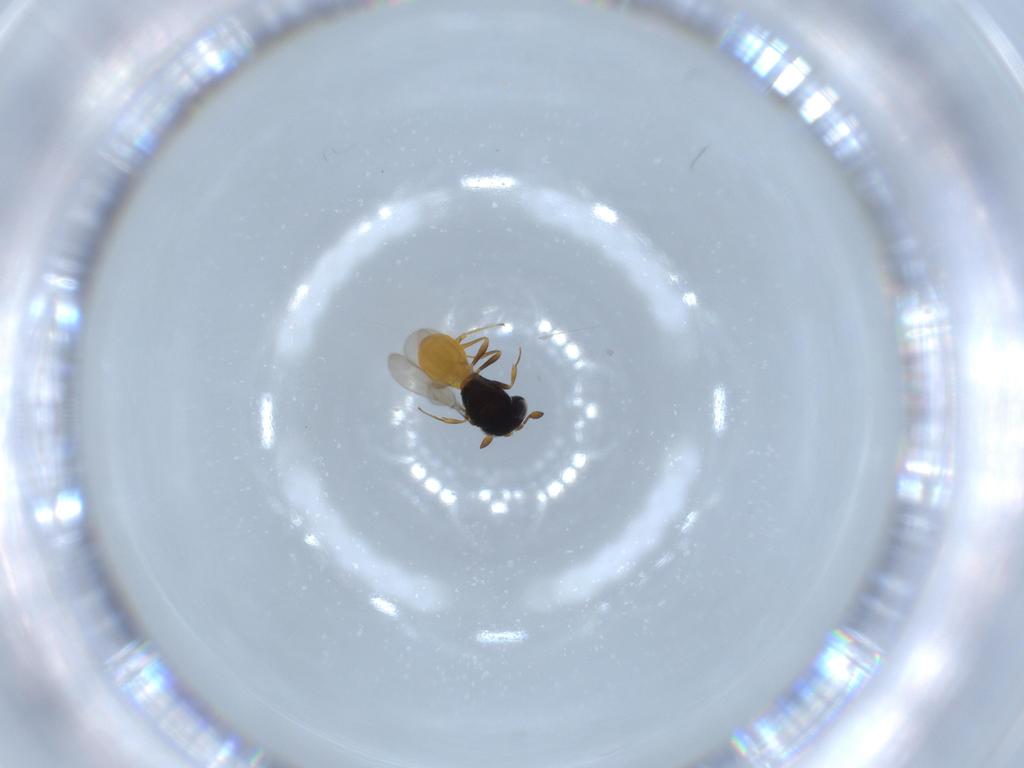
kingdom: Animalia
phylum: Arthropoda
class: Insecta
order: Hymenoptera
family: Scelionidae
